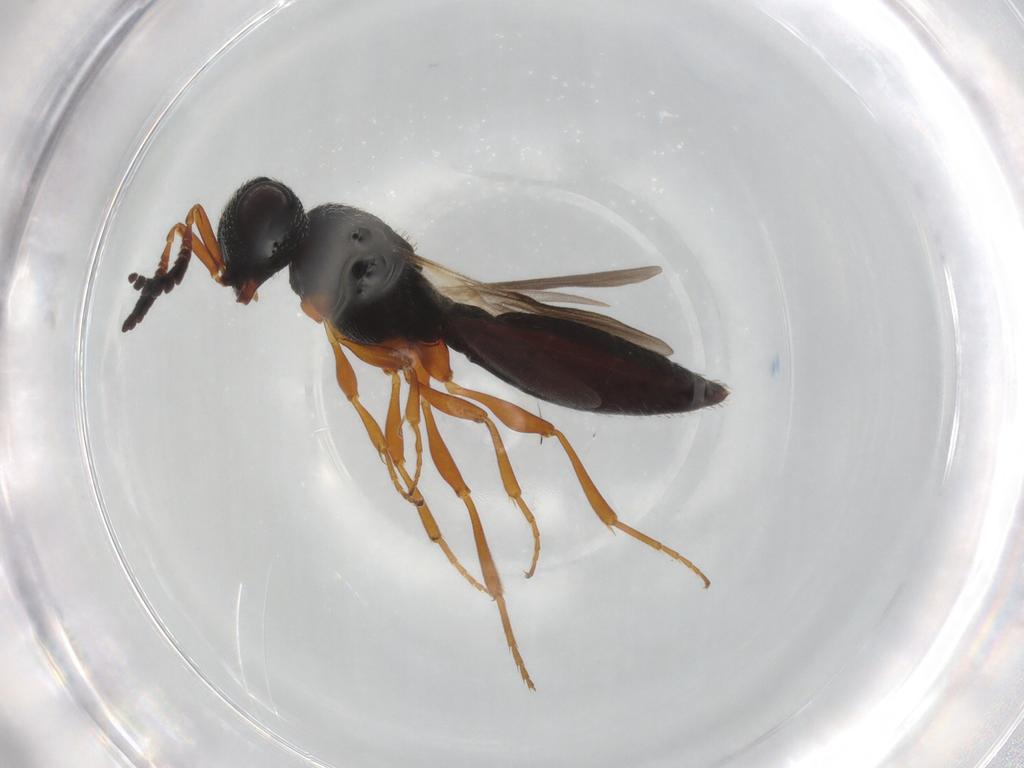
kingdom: Animalia
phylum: Arthropoda
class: Insecta
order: Hymenoptera
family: Scelionidae
